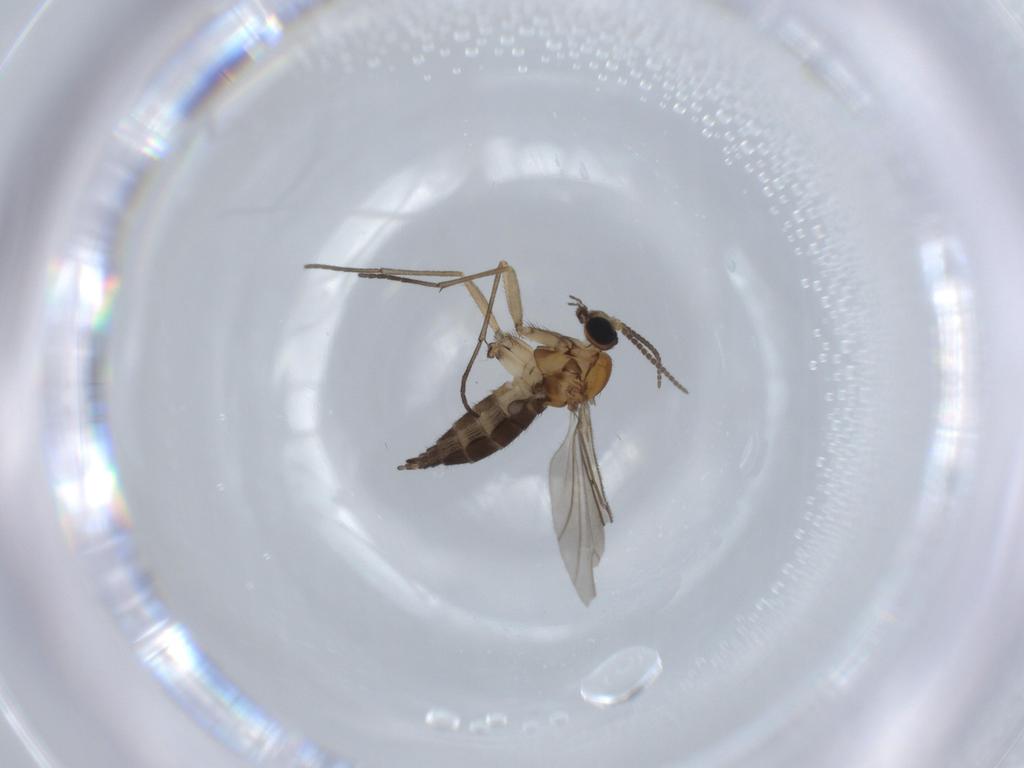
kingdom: Animalia
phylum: Arthropoda
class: Insecta
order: Diptera
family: Sciaridae
